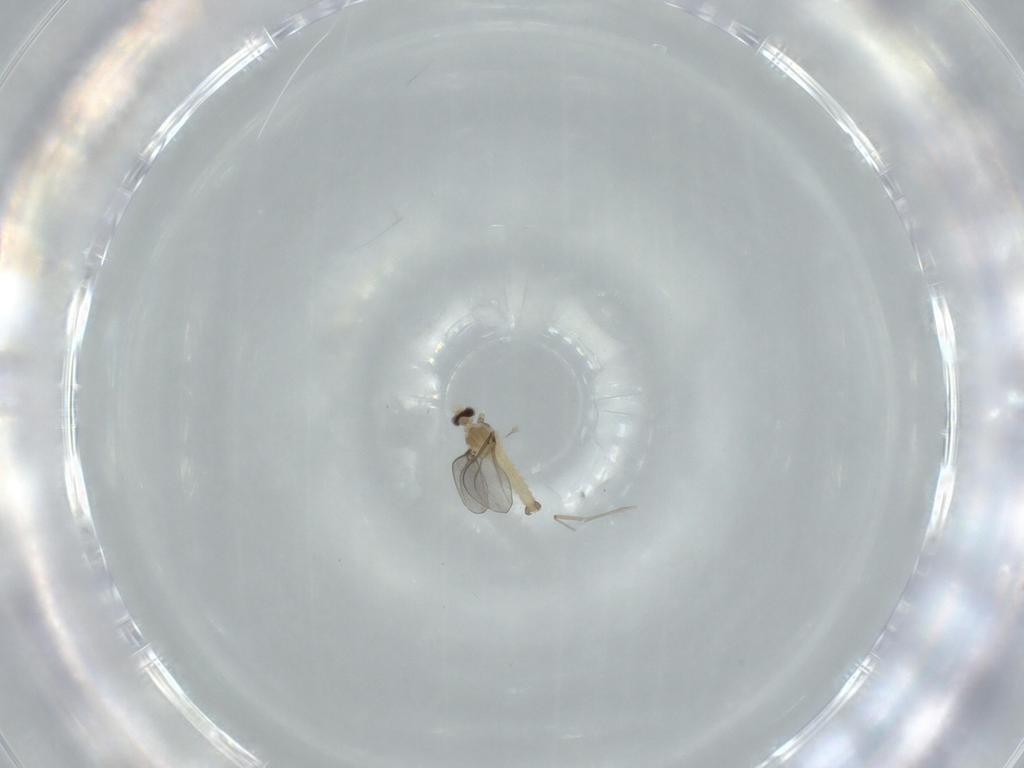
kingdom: Animalia
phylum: Arthropoda
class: Insecta
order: Diptera
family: Cecidomyiidae
